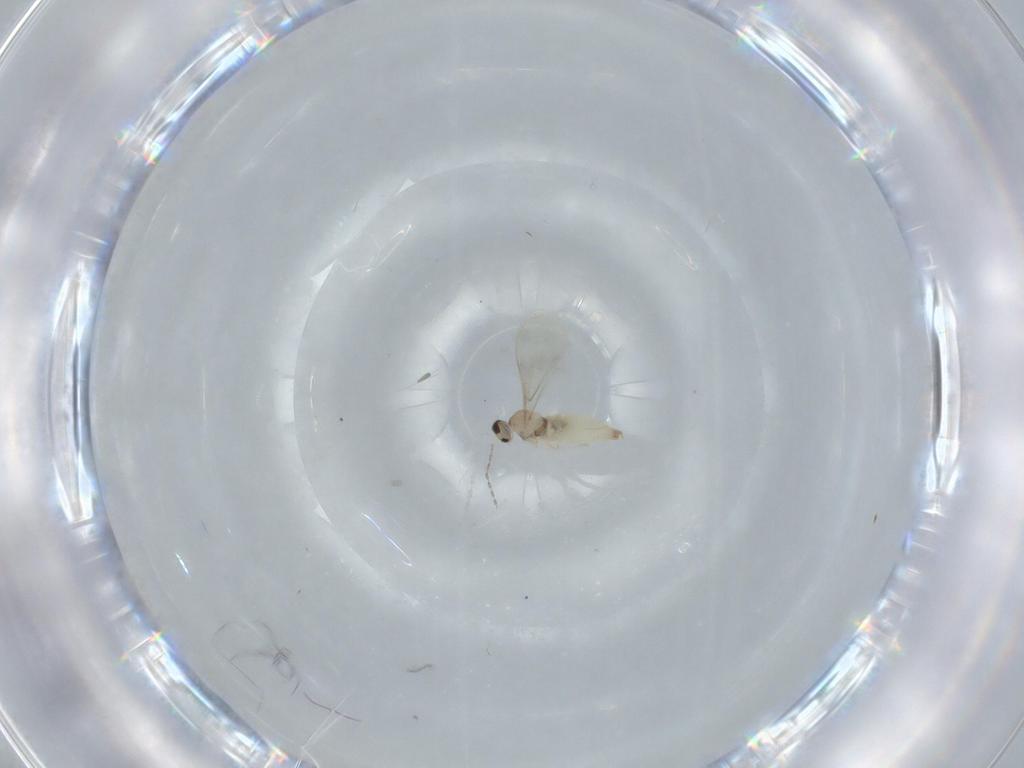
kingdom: Animalia
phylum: Arthropoda
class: Insecta
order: Diptera
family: Cecidomyiidae
